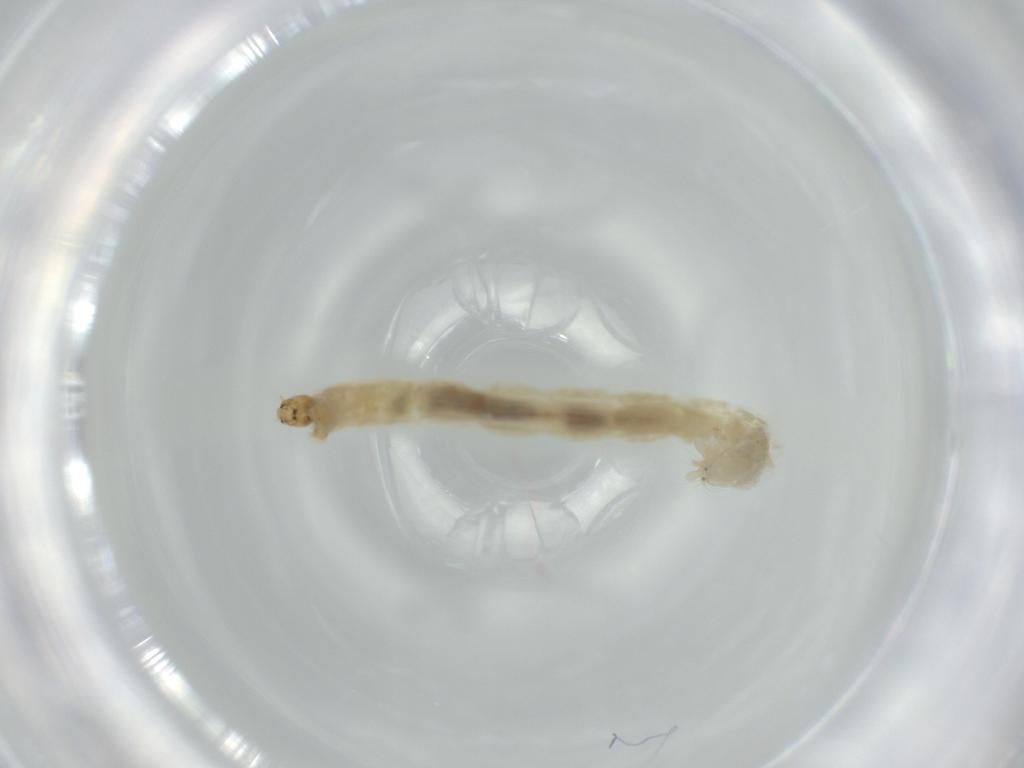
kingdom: Animalia
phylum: Arthropoda
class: Insecta
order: Diptera
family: Chironomidae
